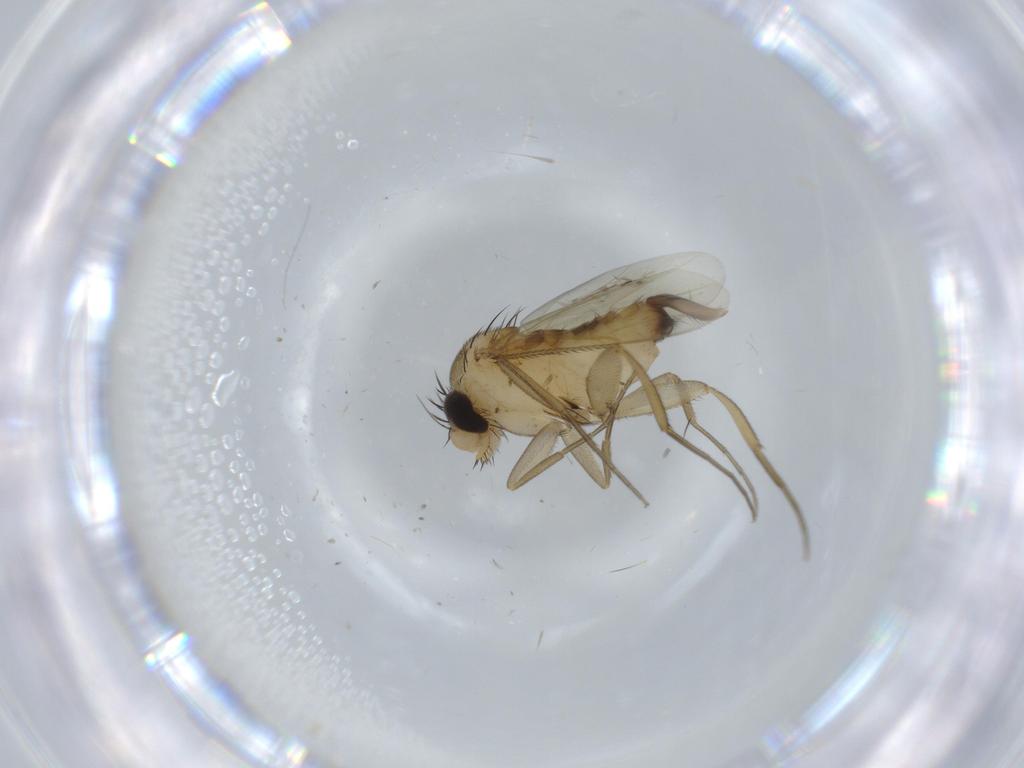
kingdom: Animalia
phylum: Arthropoda
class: Insecta
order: Diptera
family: Phoridae
